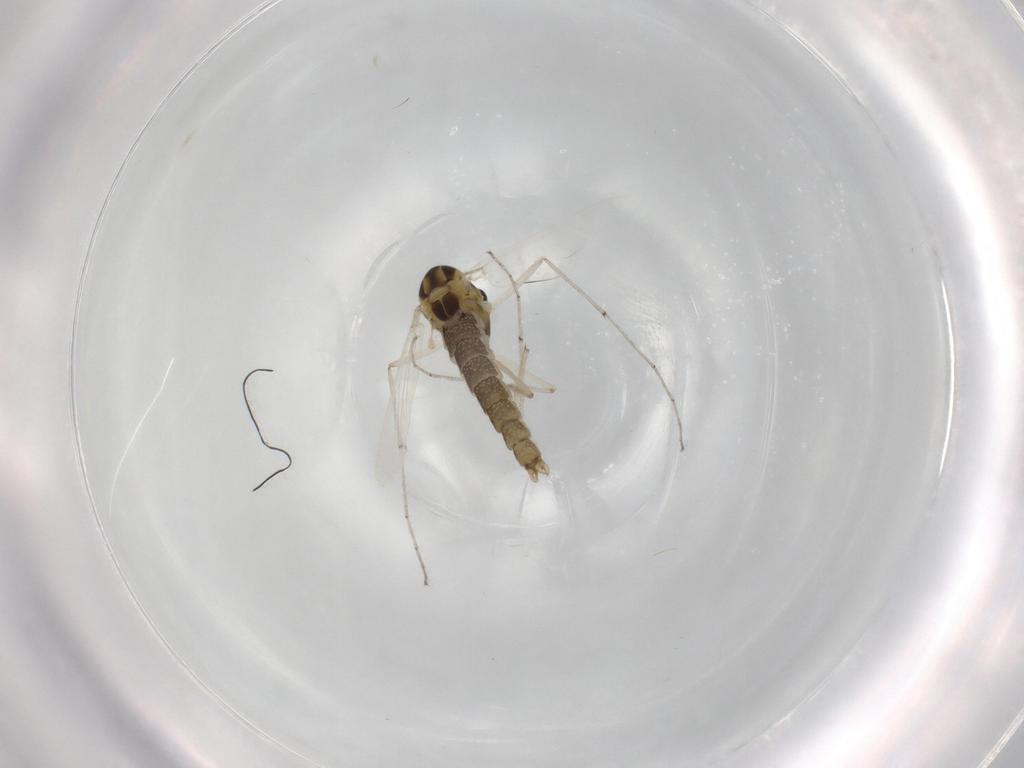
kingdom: Animalia
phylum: Arthropoda
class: Insecta
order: Diptera
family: Chironomidae
